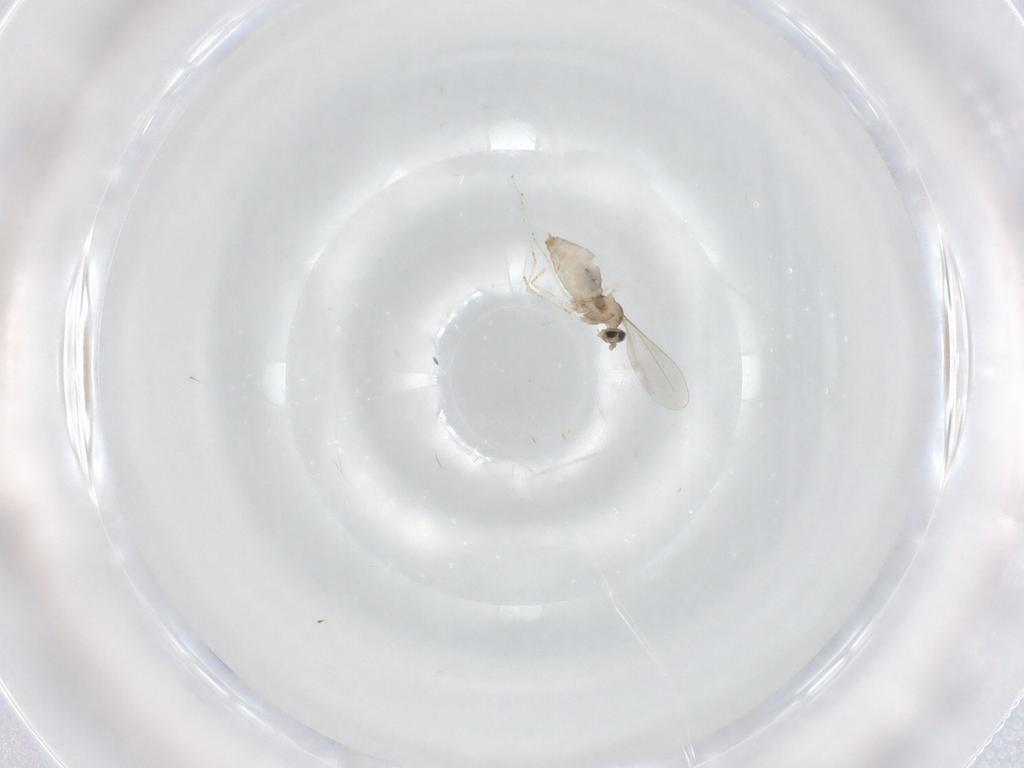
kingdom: Animalia
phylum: Arthropoda
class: Insecta
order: Diptera
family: Cecidomyiidae
